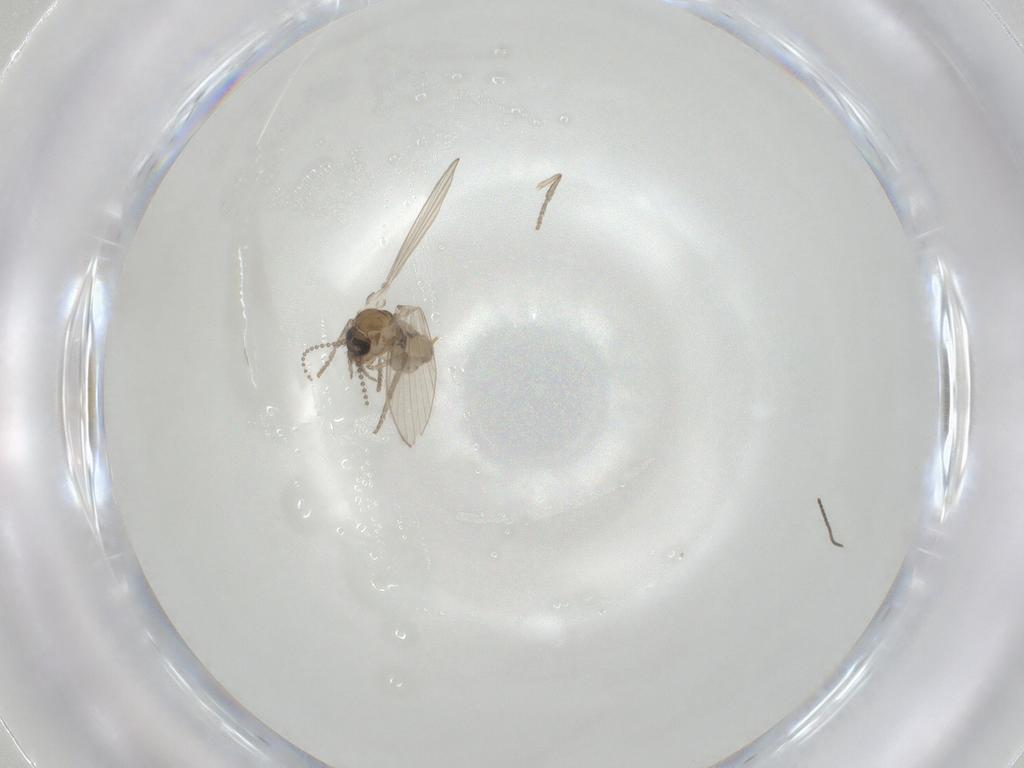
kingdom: Animalia
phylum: Arthropoda
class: Insecta
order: Diptera
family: Psychodidae
